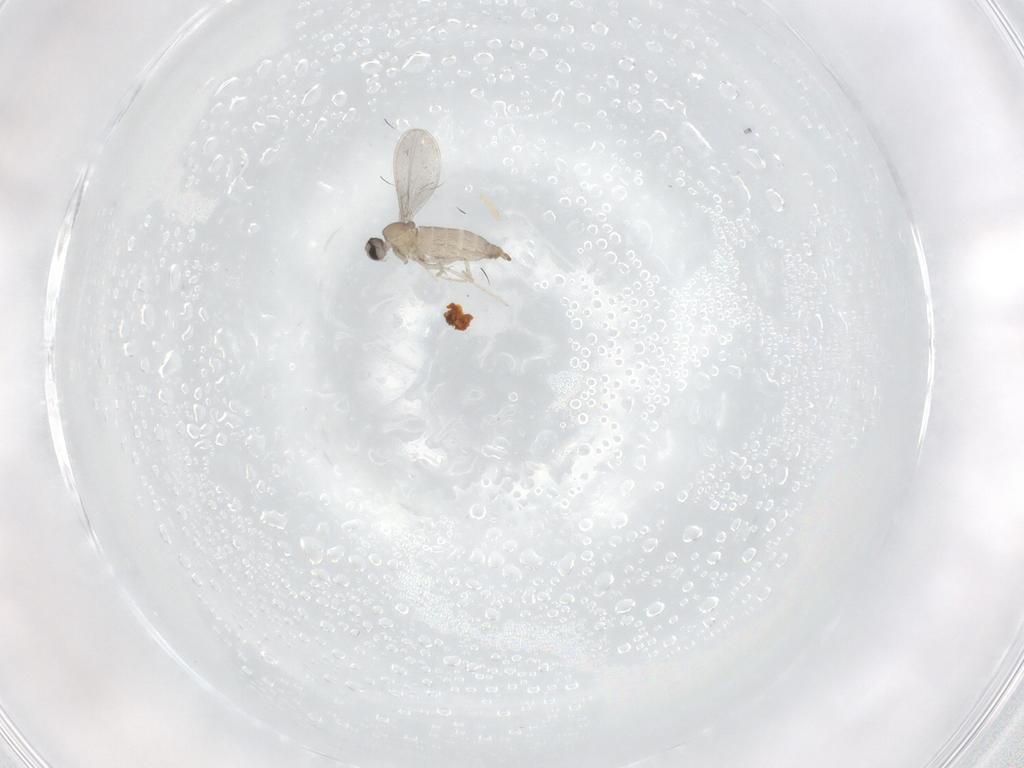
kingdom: Animalia
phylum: Arthropoda
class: Insecta
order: Diptera
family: Cecidomyiidae
